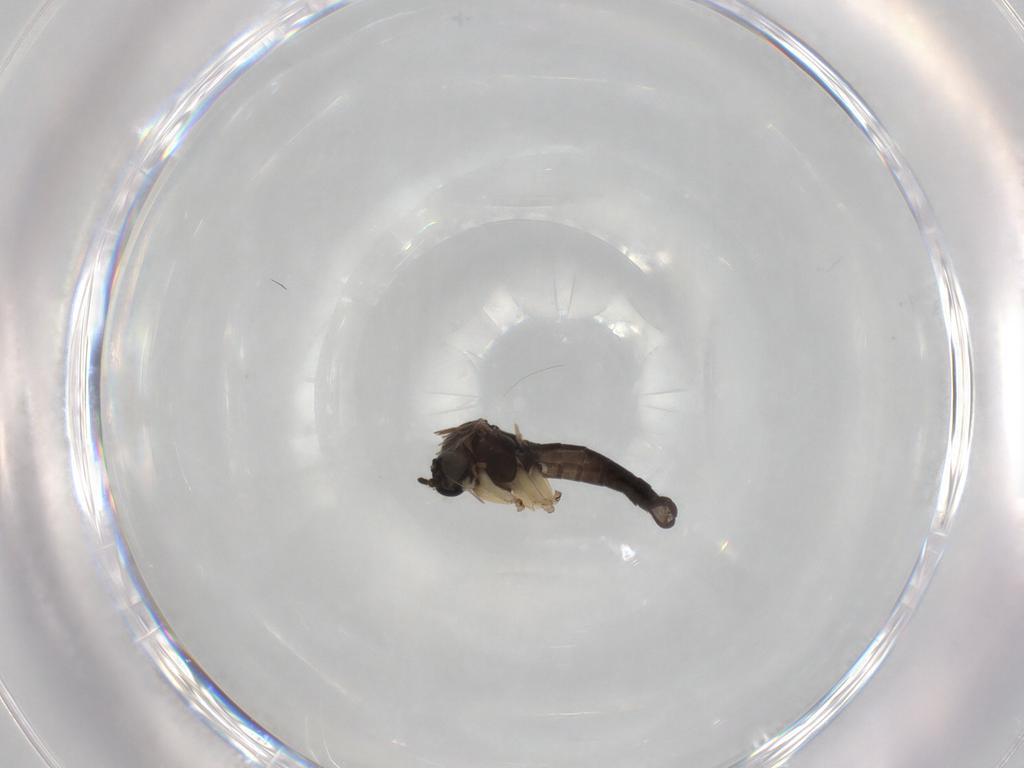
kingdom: Animalia
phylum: Arthropoda
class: Insecta
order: Diptera
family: Sciaridae
